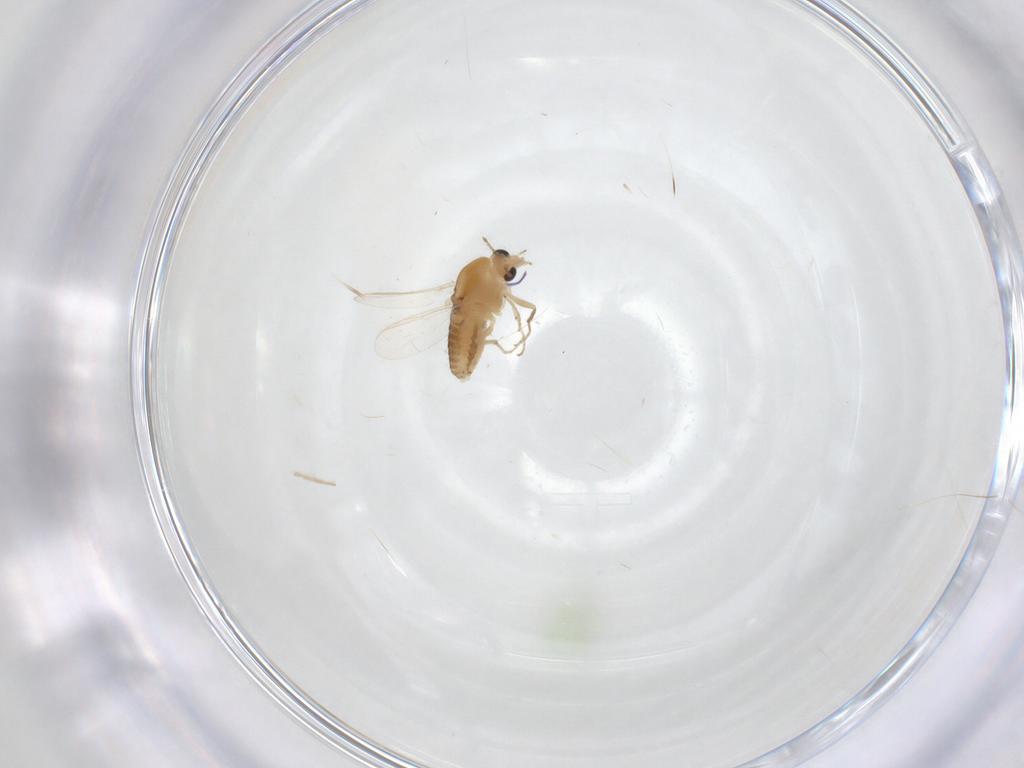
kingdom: Animalia
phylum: Arthropoda
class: Insecta
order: Diptera
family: Chironomidae
